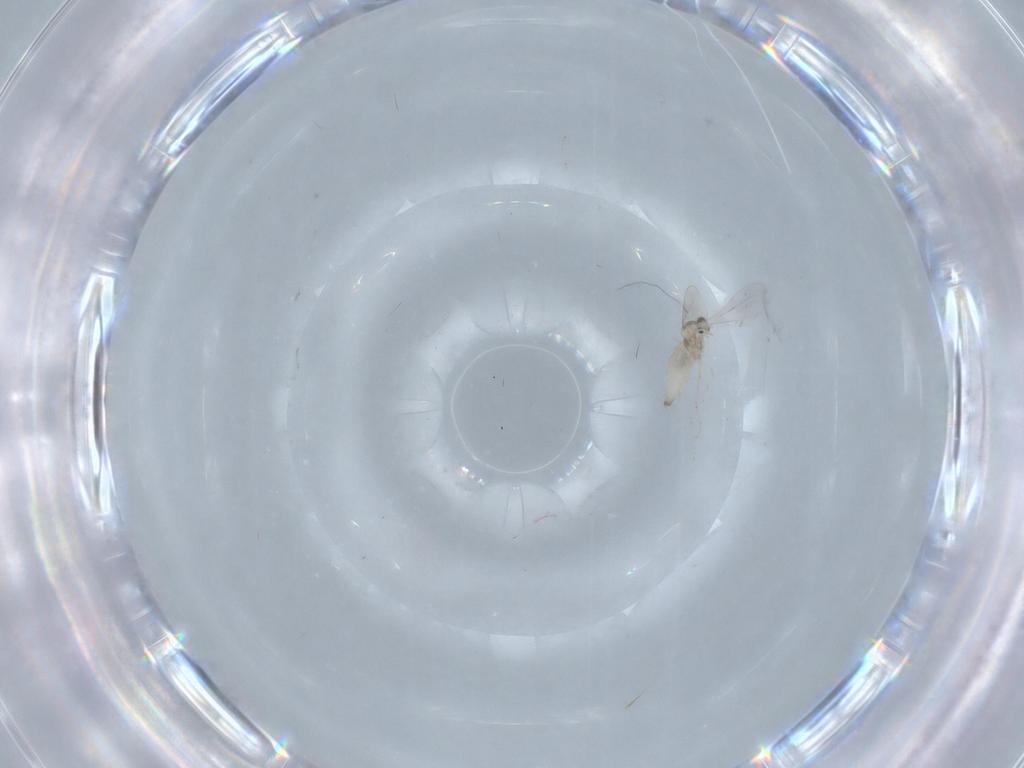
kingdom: Animalia
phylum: Arthropoda
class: Insecta
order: Diptera
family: Cecidomyiidae
